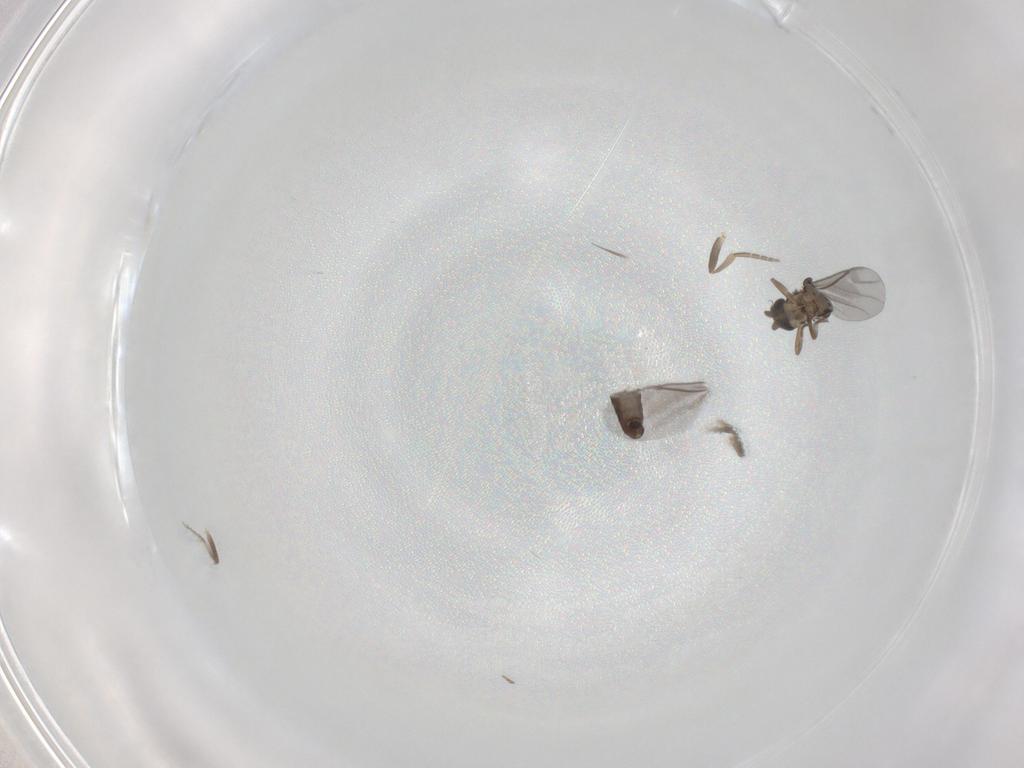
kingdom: Animalia
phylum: Arthropoda
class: Insecta
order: Diptera
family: Phoridae
